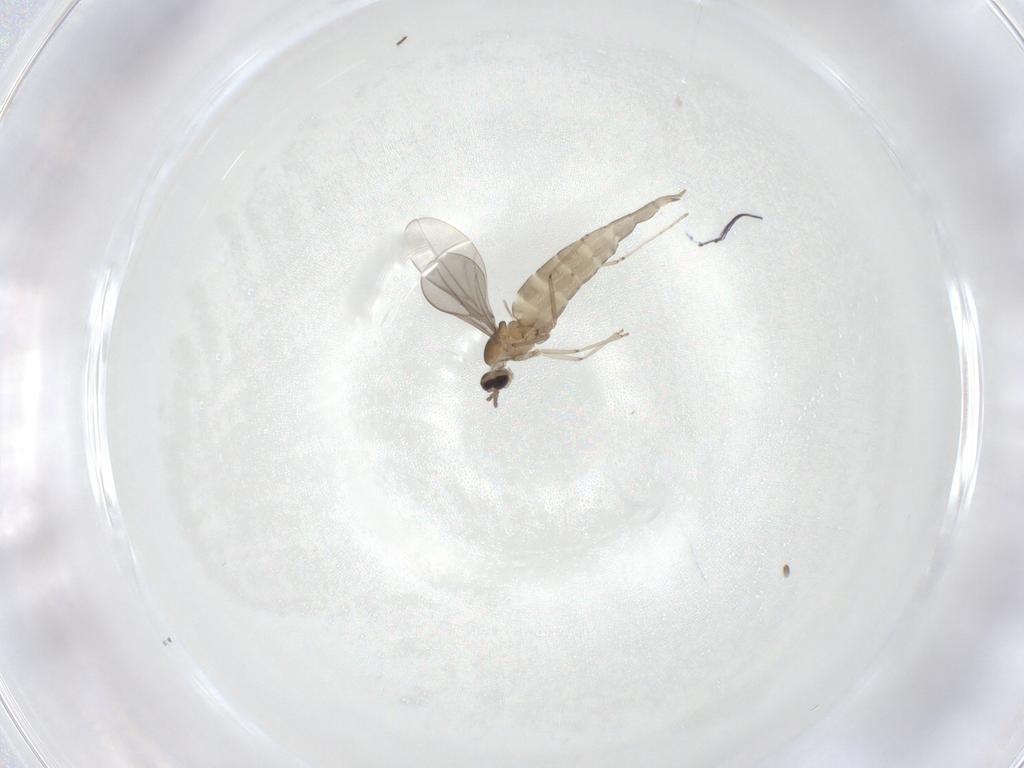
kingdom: Animalia
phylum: Arthropoda
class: Insecta
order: Diptera
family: Cecidomyiidae
